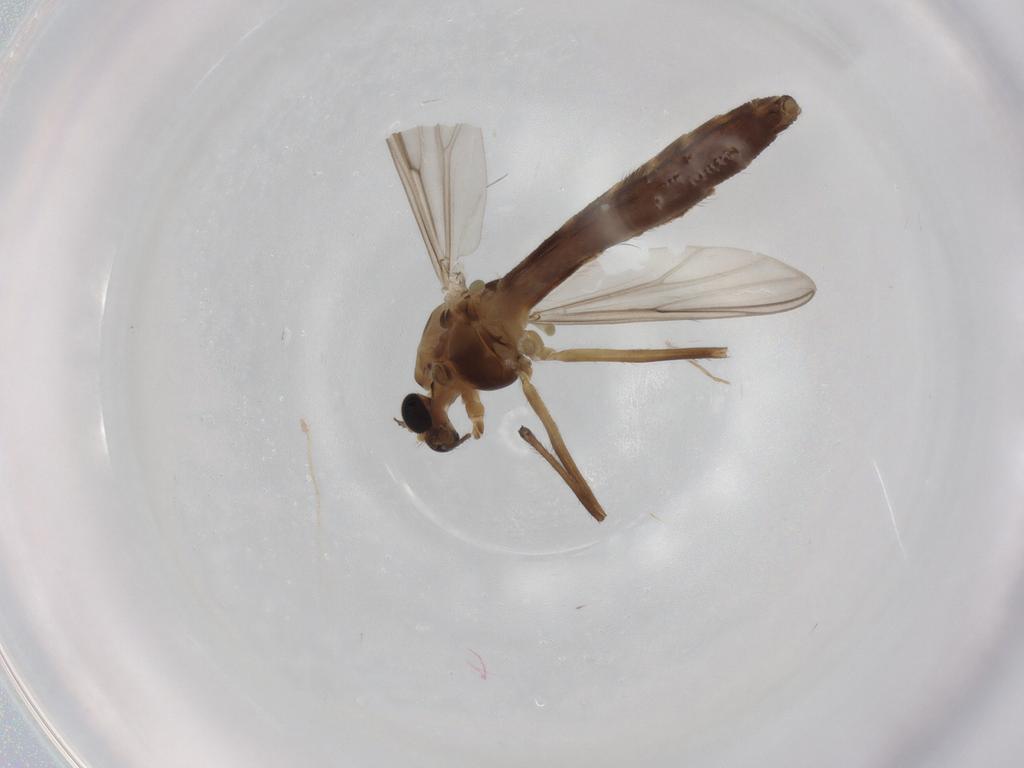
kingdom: Animalia
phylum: Arthropoda
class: Insecta
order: Diptera
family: Chironomidae
